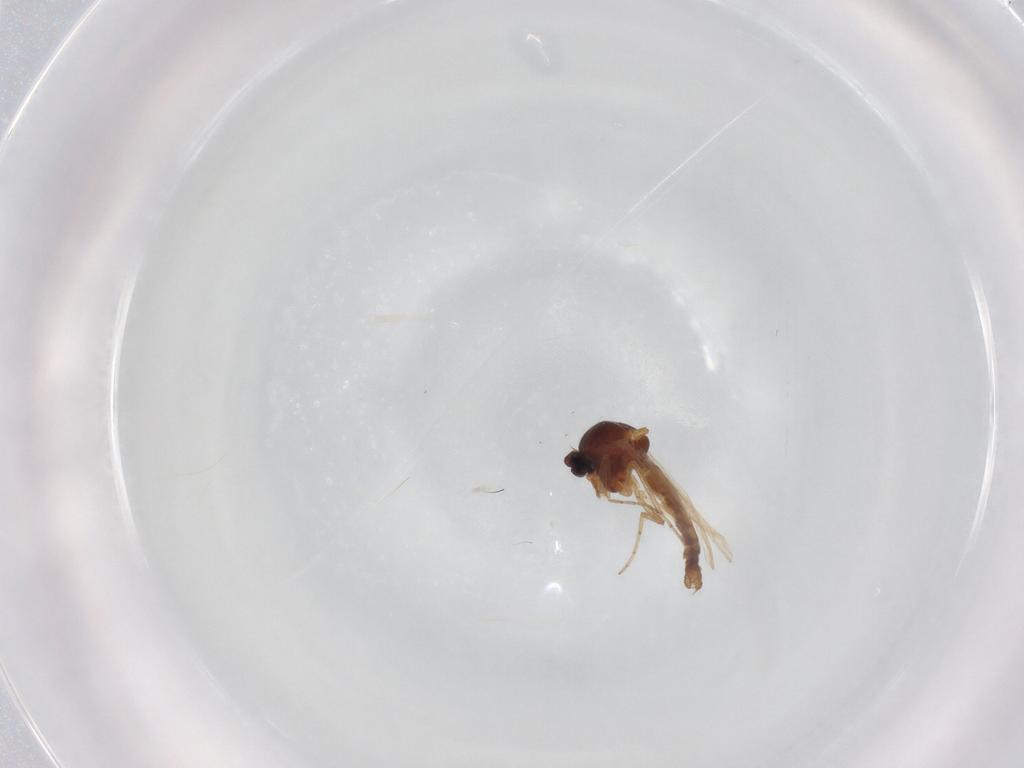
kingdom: Animalia
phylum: Arthropoda
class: Insecta
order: Diptera
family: Ceratopogonidae
